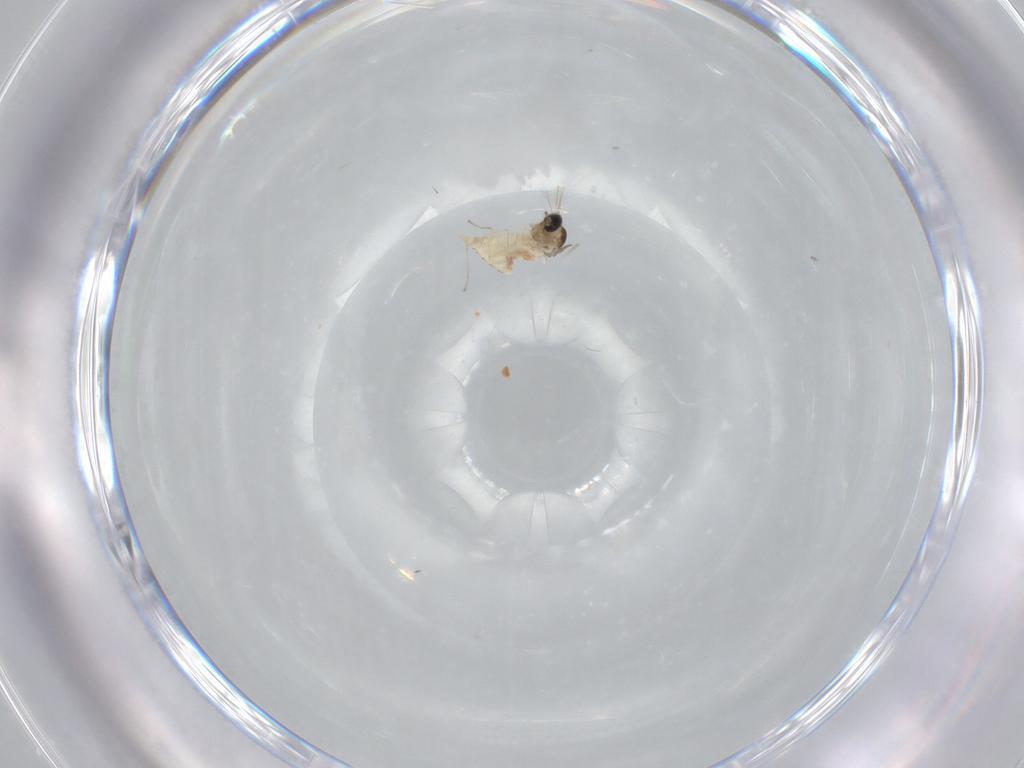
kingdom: Animalia
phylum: Arthropoda
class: Insecta
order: Diptera
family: Cecidomyiidae
